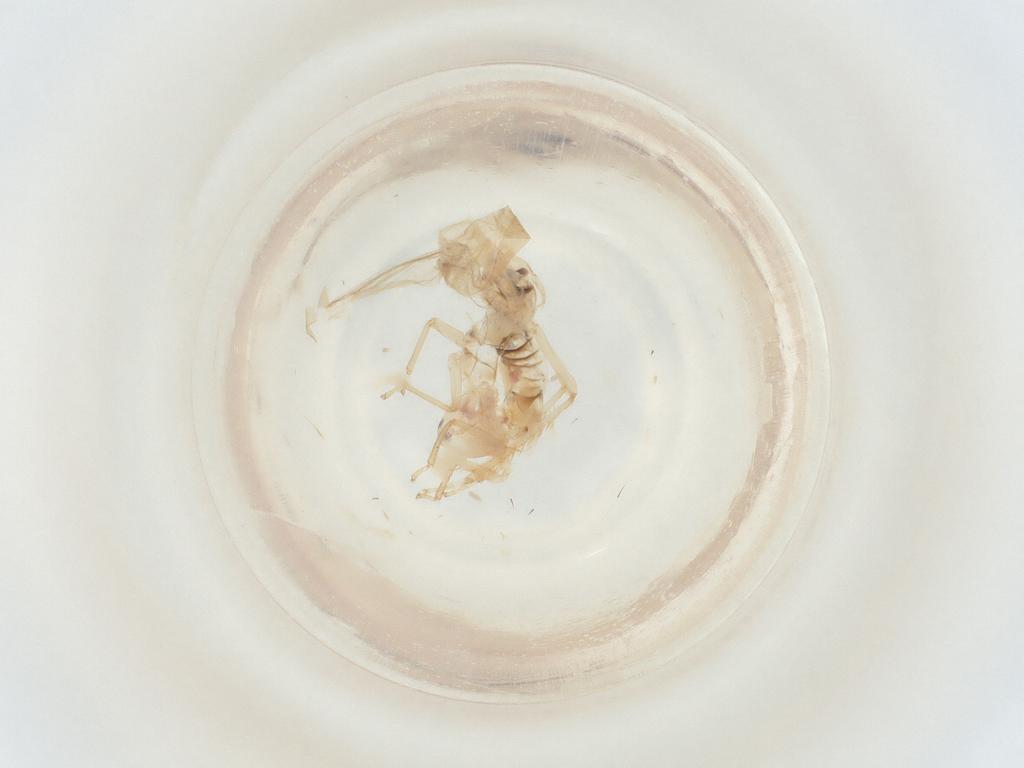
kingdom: Animalia
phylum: Arthropoda
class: Insecta
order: Hemiptera
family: Cicadellidae
